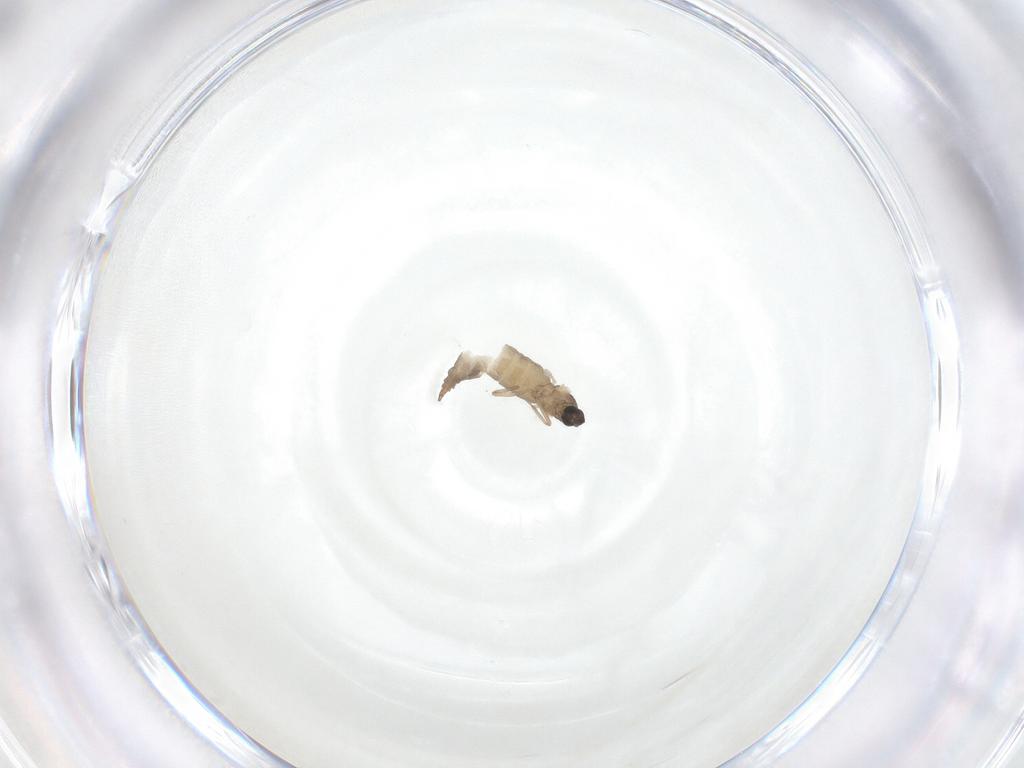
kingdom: Animalia
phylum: Arthropoda
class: Insecta
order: Diptera
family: Cecidomyiidae
